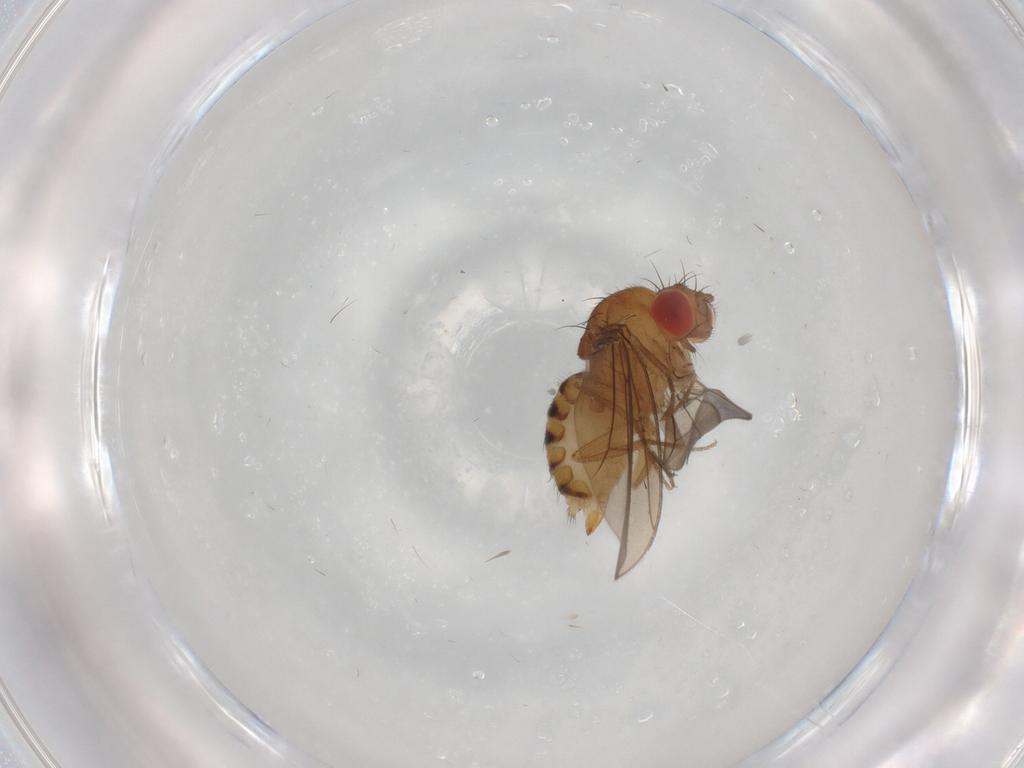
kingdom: Animalia
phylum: Arthropoda
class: Insecta
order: Diptera
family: Drosophilidae
